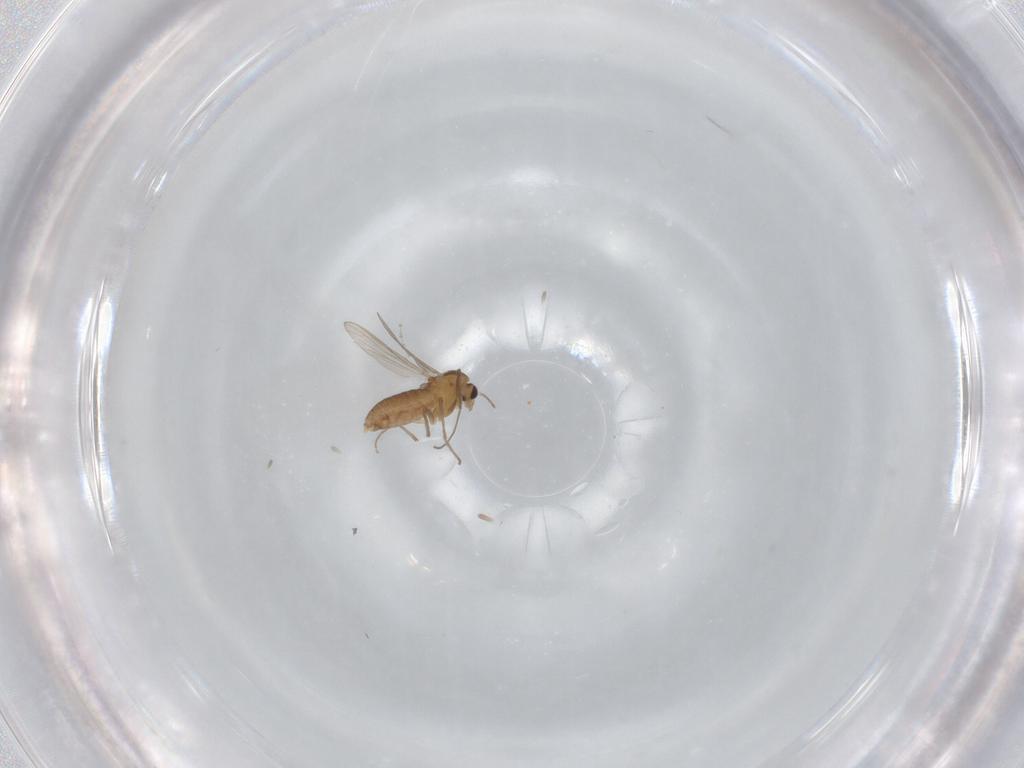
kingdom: Animalia
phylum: Arthropoda
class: Insecta
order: Diptera
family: Chironomidae
